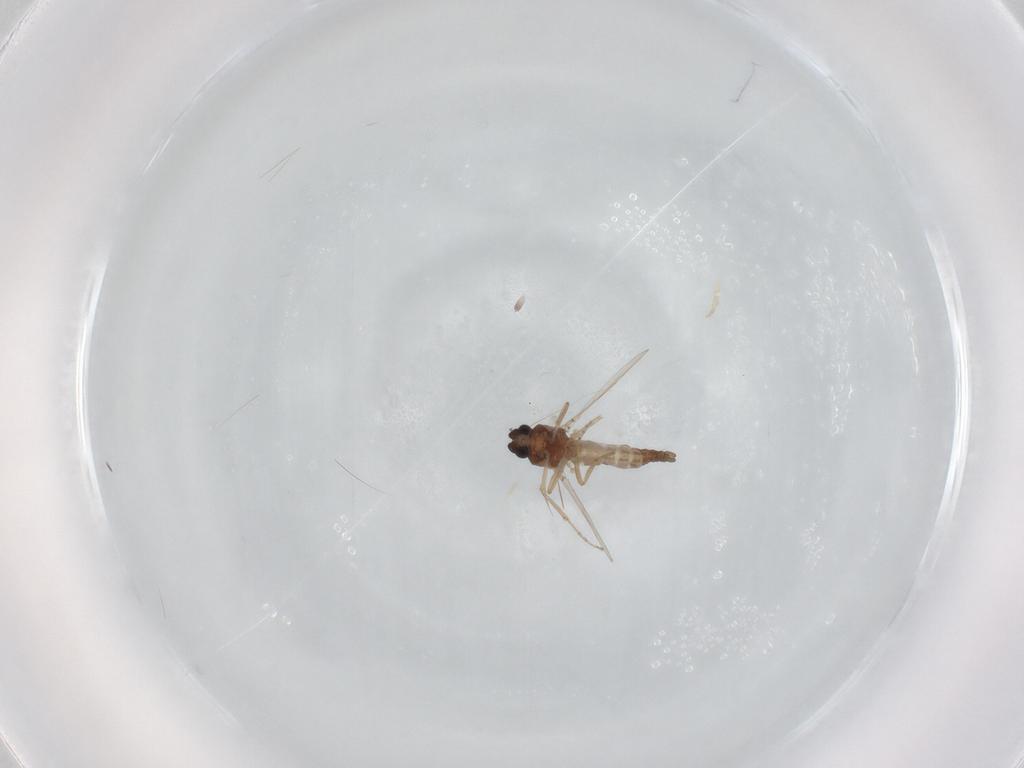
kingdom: Animalia
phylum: Arthropoda
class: Insecta
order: Diptera
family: Ceratopogonidae
